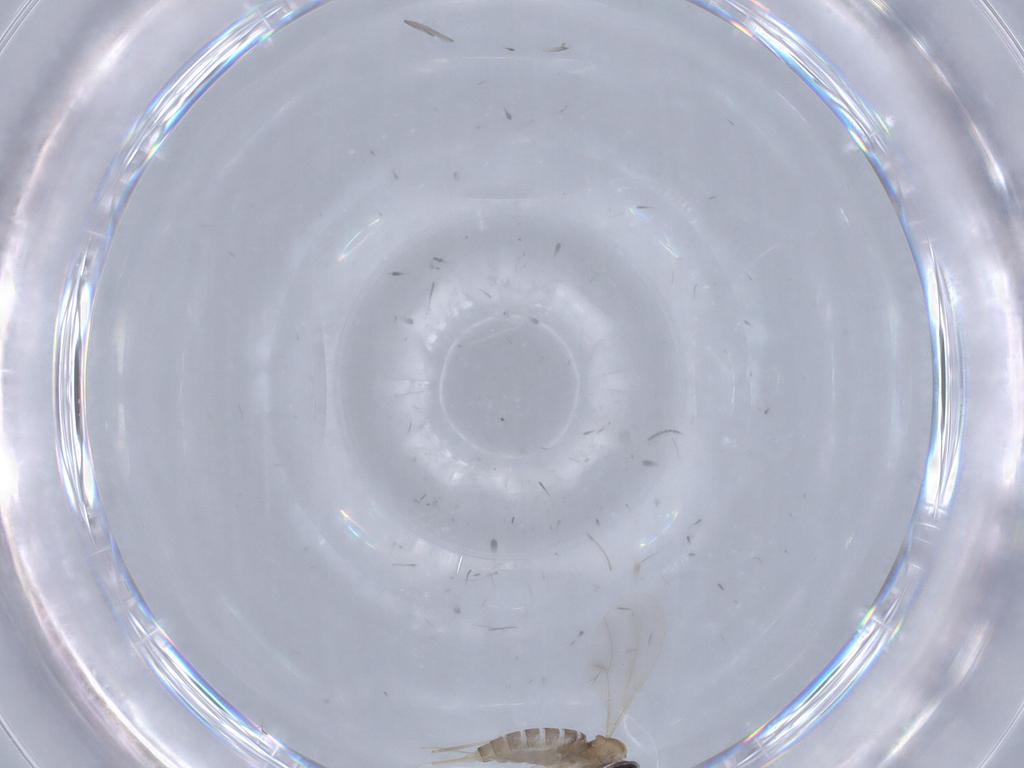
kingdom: Animalia
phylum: Arthropoda
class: Insecta
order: Diptera
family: Cecidomyiidae
